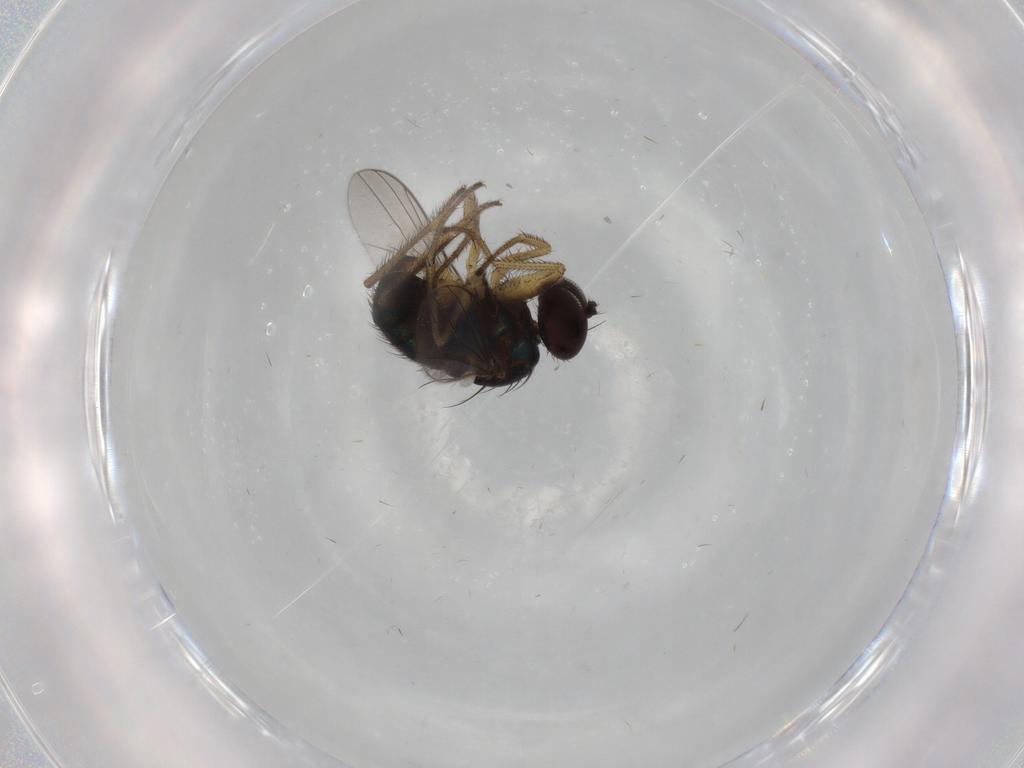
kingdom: Animalia
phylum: Arthropoda
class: Insecta
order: Diptera
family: Dolichopodidae
